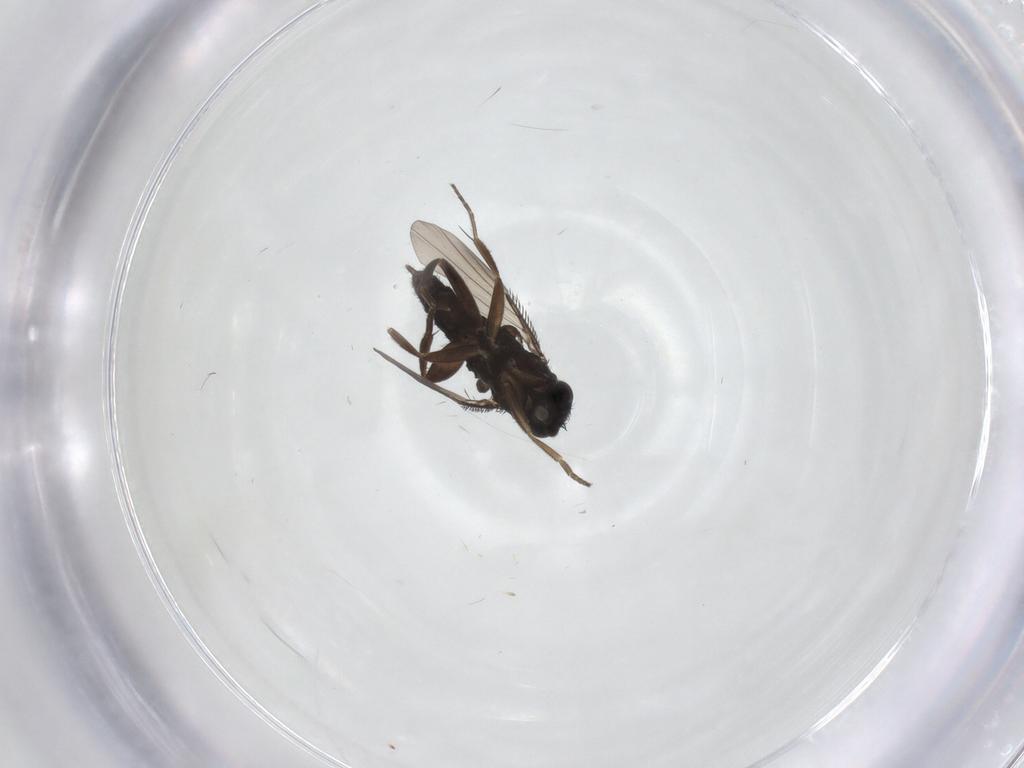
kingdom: Animalia
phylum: Arthropoda
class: Insecta
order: Diptera
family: Phoridae
